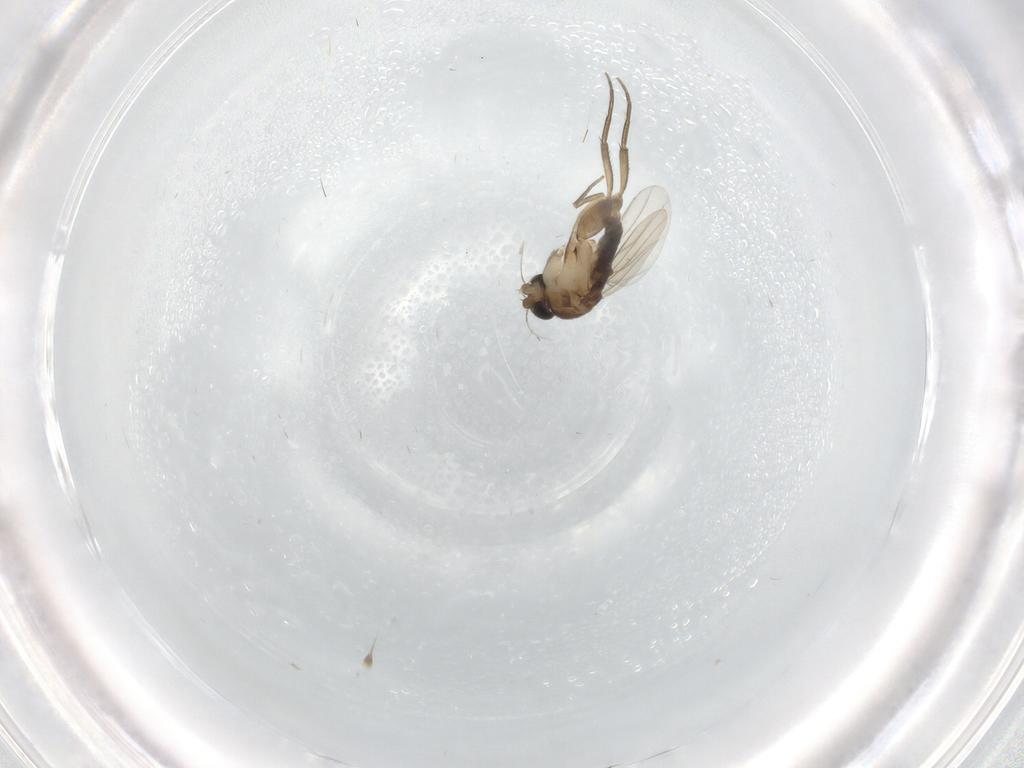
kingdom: Animalia
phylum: Arthropoda
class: Insecta
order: Diptera
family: Phoridae
